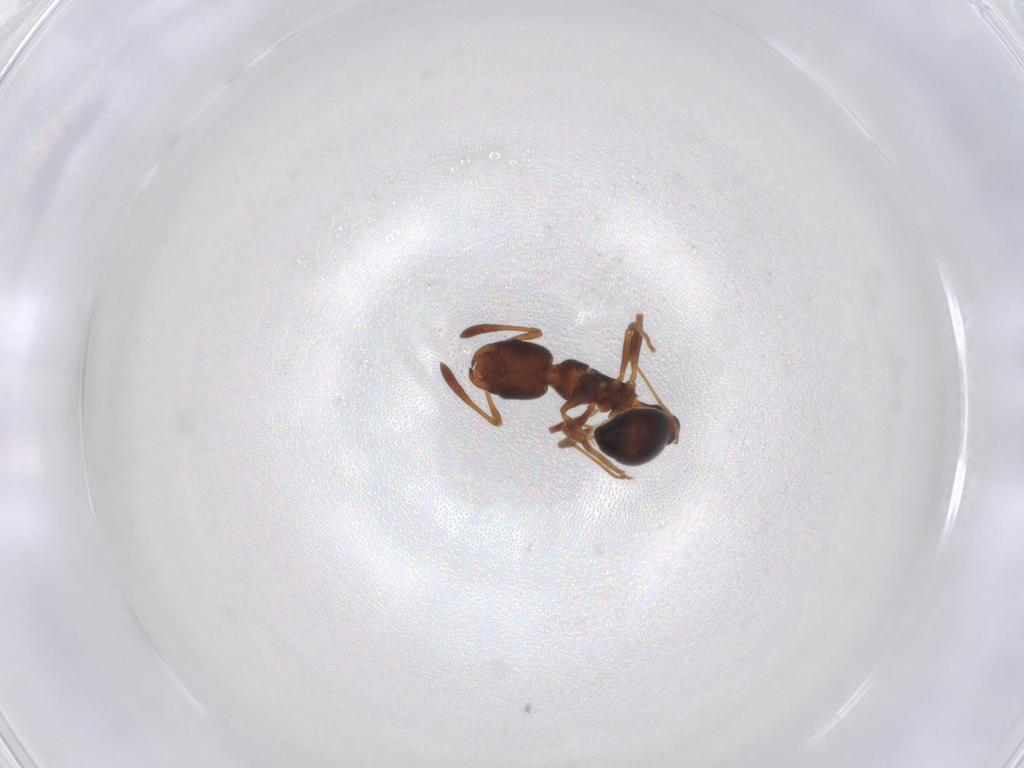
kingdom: Animalia
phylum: Arthropoda
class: Insecta
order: Hymenoptera
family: Formicidae
